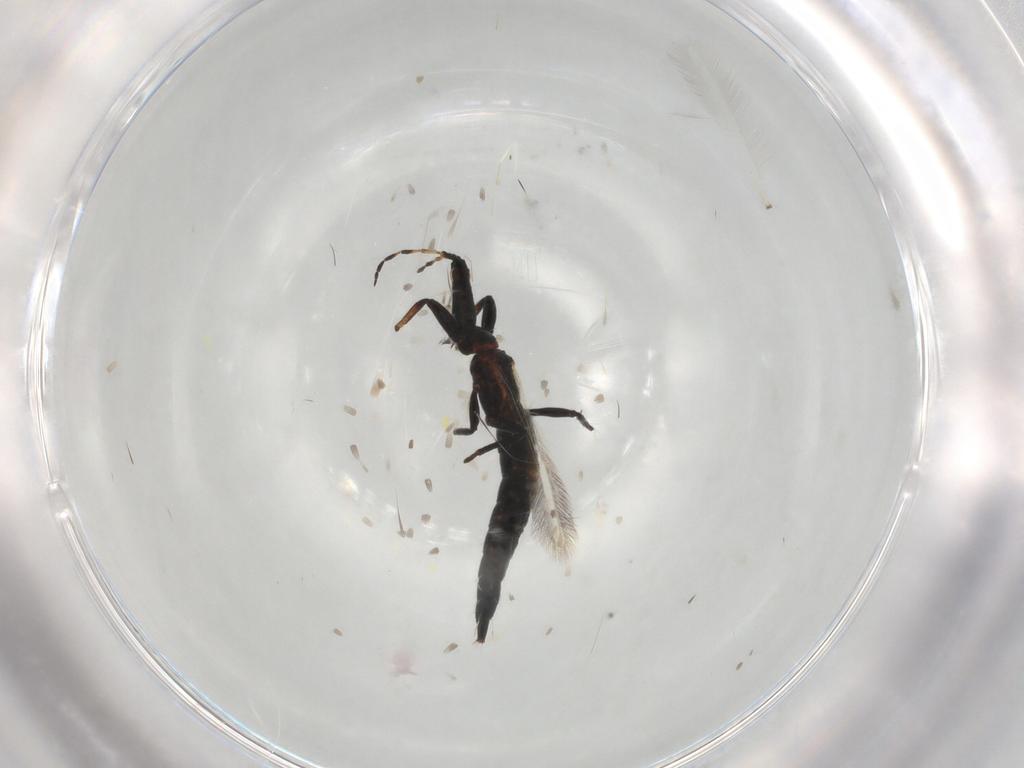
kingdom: Animalia
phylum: Arthropoda
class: Insecta
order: Thysanoptera
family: Phlaeothripidae
